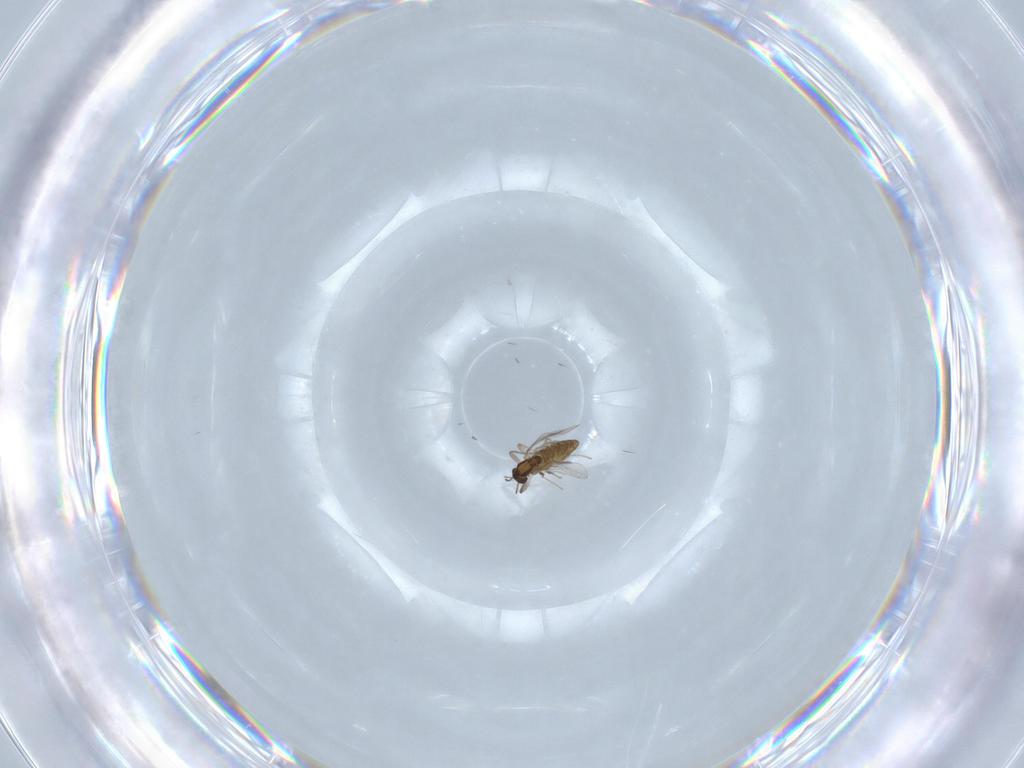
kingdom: Animalia
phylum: Arthropoda
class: Insecta
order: Diptera
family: Chironomidae
